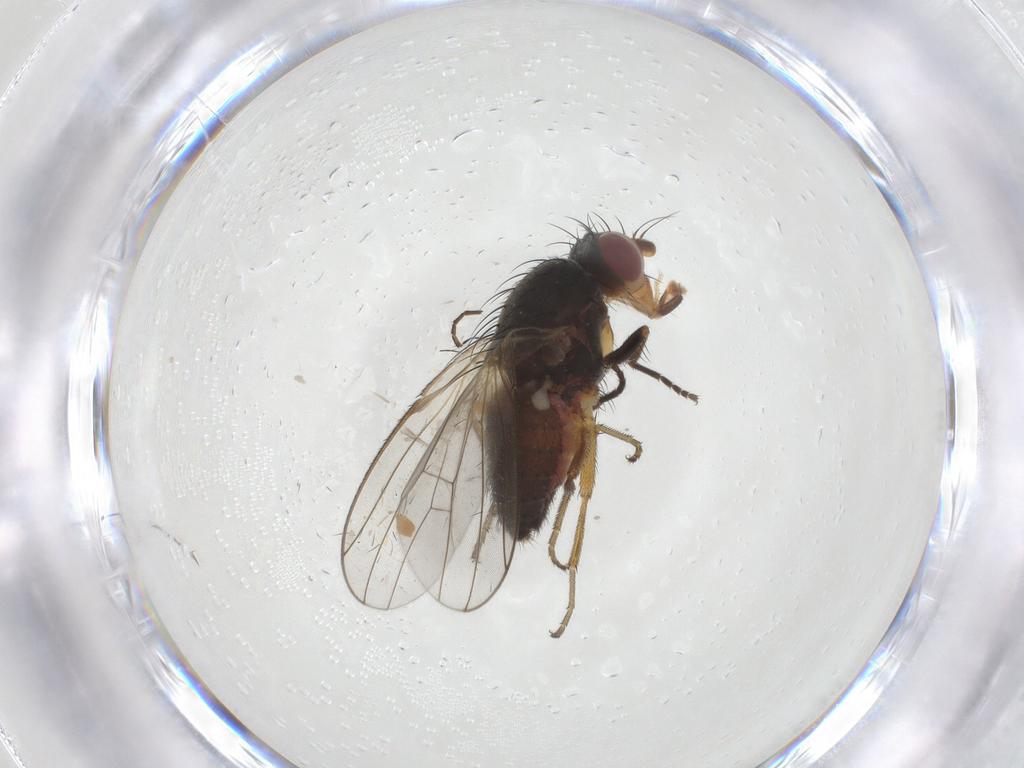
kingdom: Animalia
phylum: Arthropoda
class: Insecta
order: Diptera
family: Heleomyzidae
